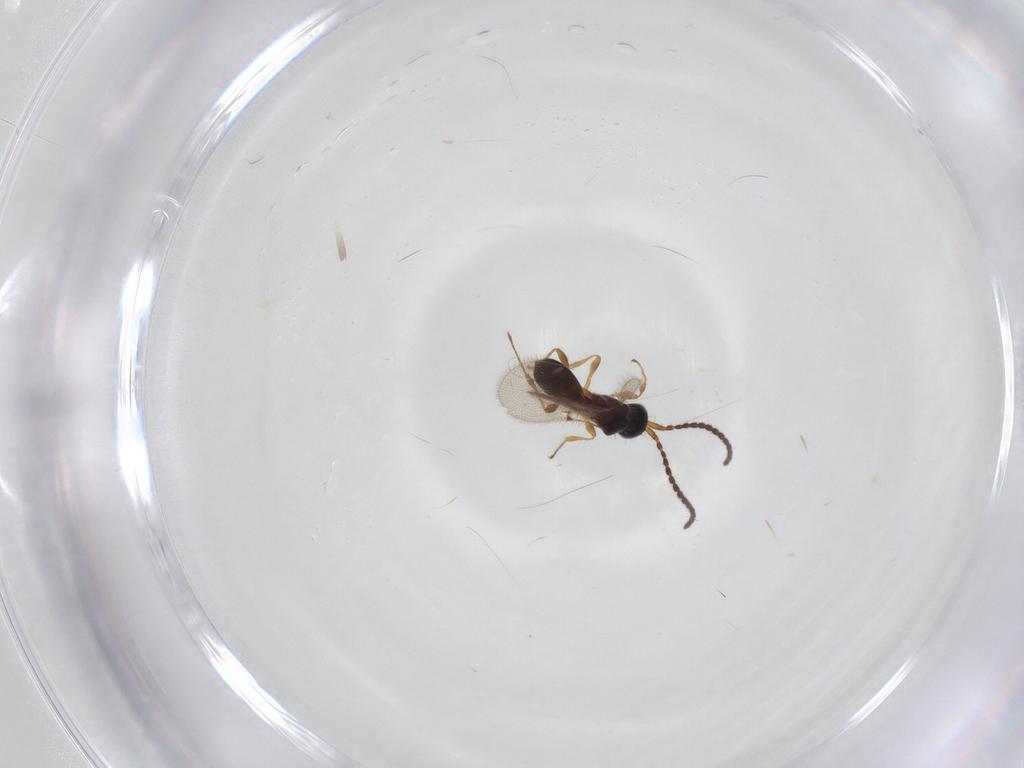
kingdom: Animalia
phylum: Arthropoda
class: Insecta
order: Hymenoptera
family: Diapriidae
